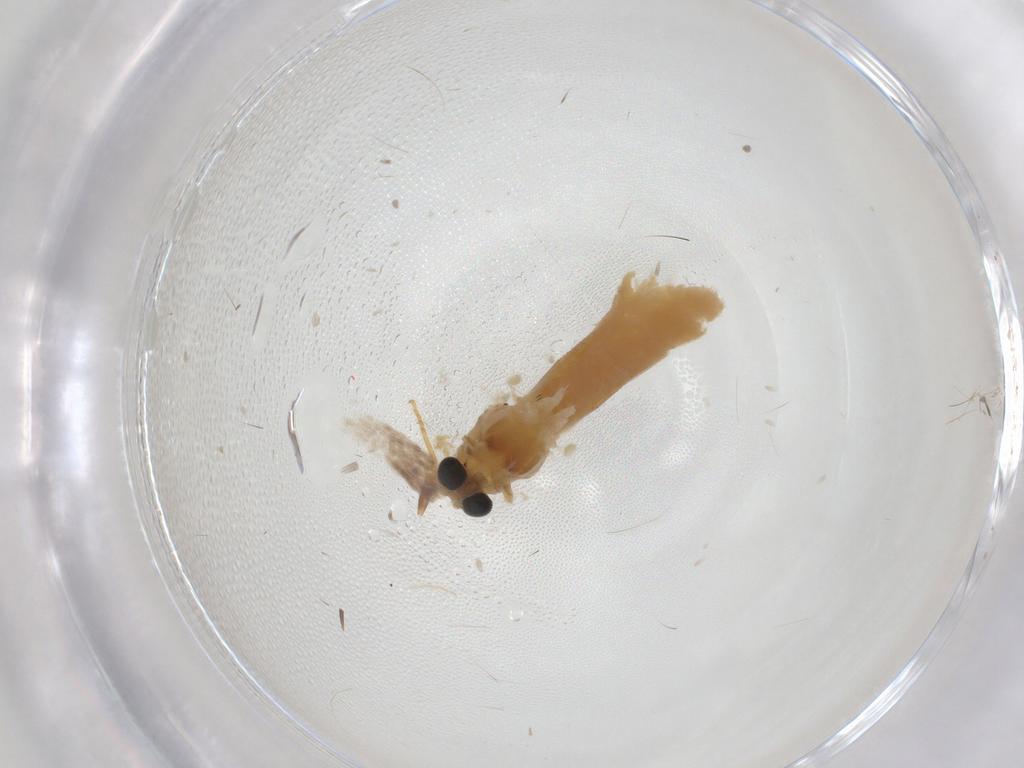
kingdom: Animalia
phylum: Arthropoda
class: Insecta
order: Diptera
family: Chironomidae
